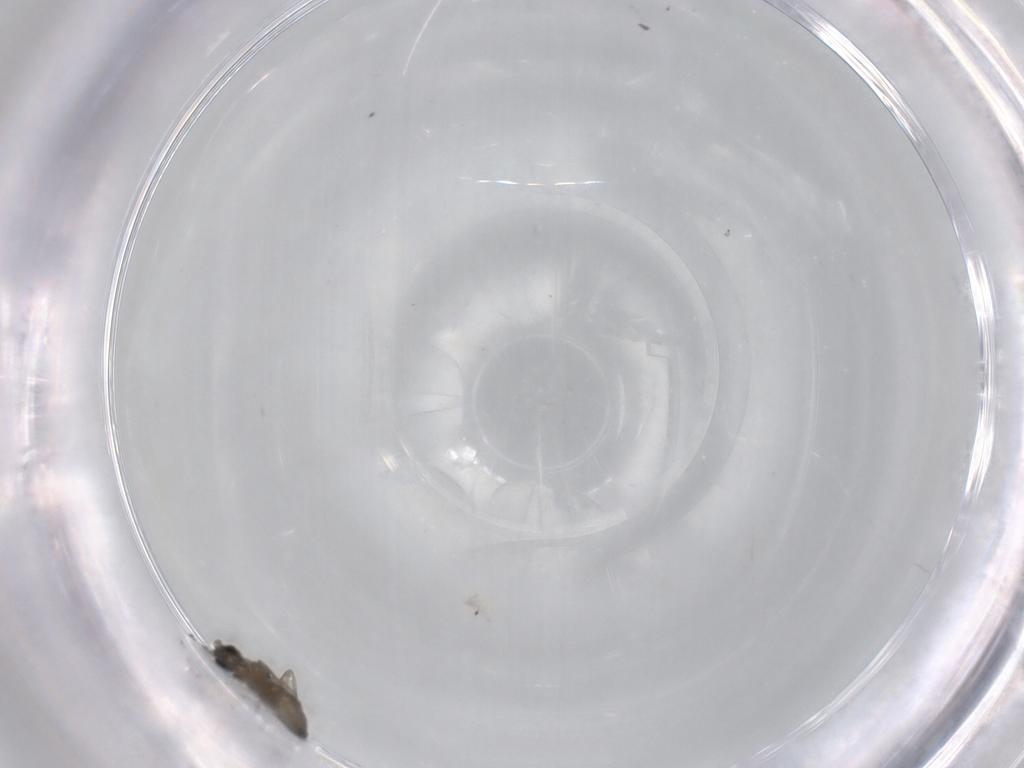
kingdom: Animalia
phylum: Arthropoda
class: Insecta
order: Diptera
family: Cecidomyiidae
